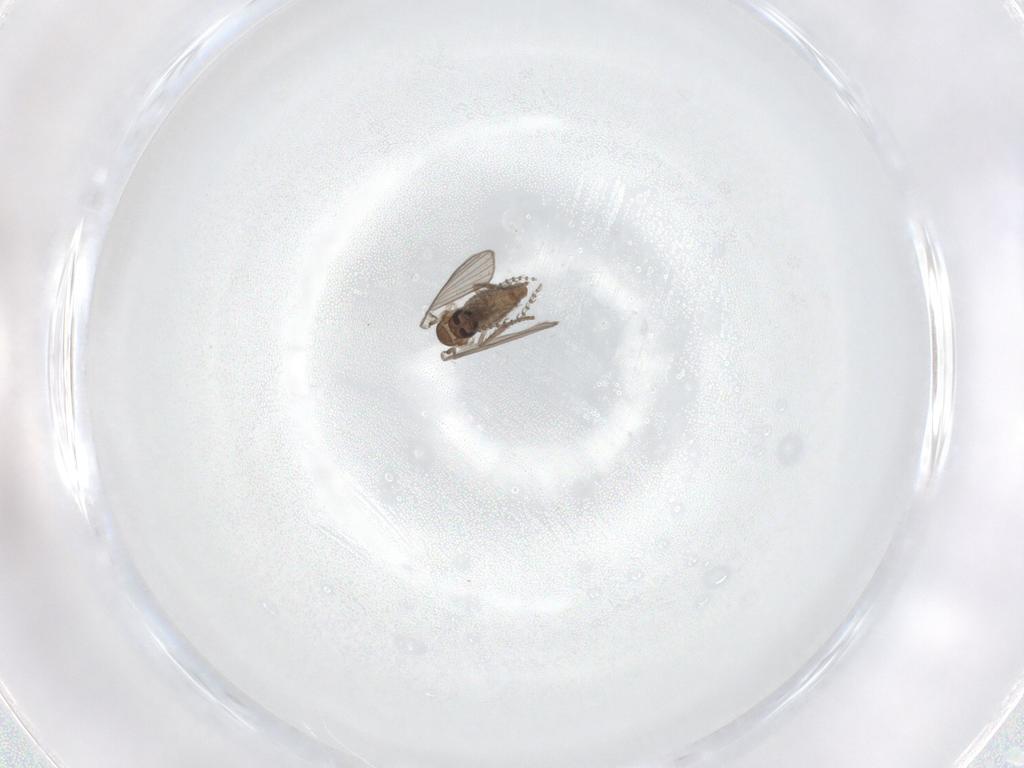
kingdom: Animalia
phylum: Arthropoda
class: Insecta
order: Diptera
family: Psychodidae
